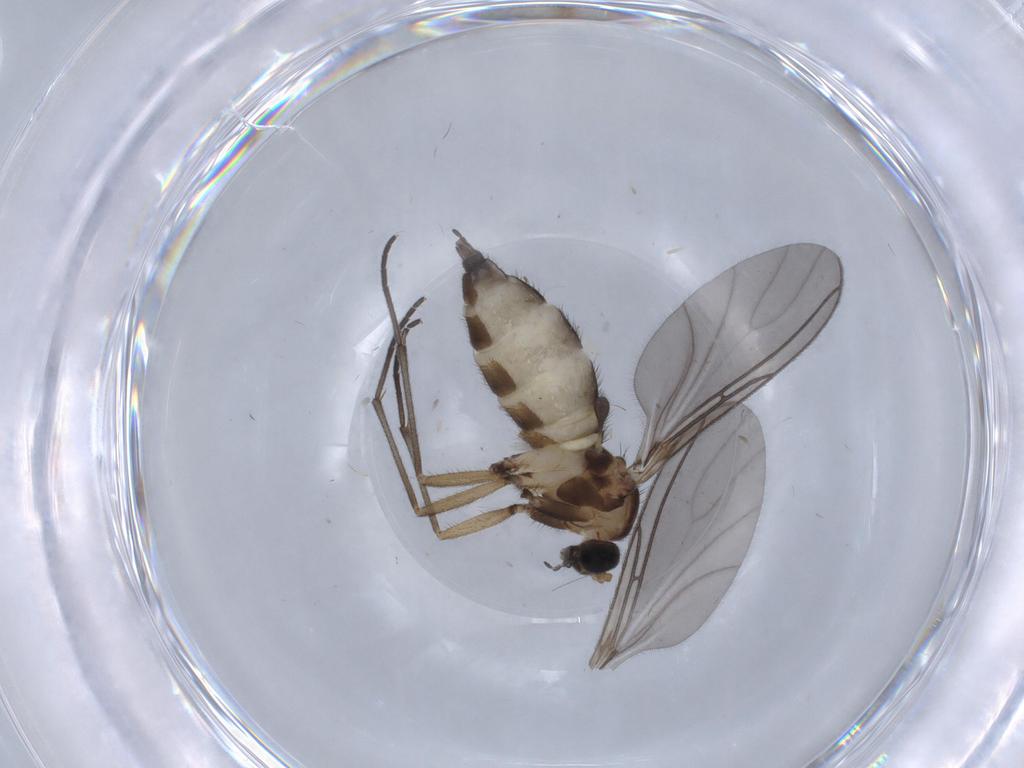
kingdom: Animalia
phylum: Arthropoda
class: Insecta
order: Diptera
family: Sciaridae
